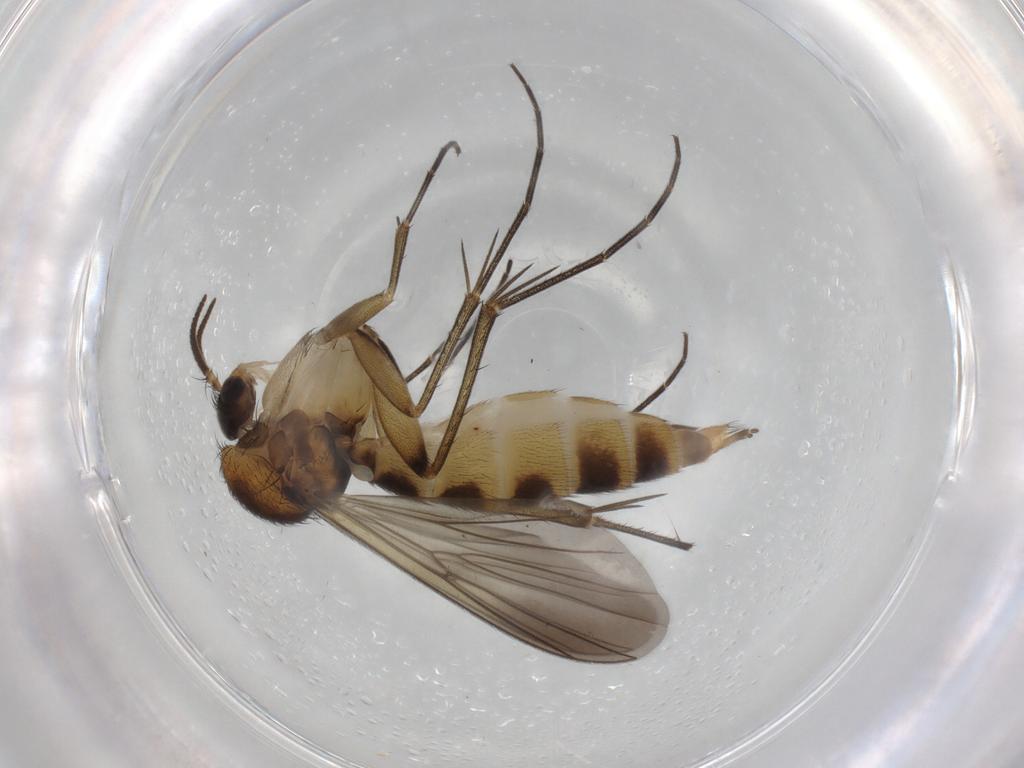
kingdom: Animalia
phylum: Arthropoda
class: Insecta
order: Diptera
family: Mycetophilidae
